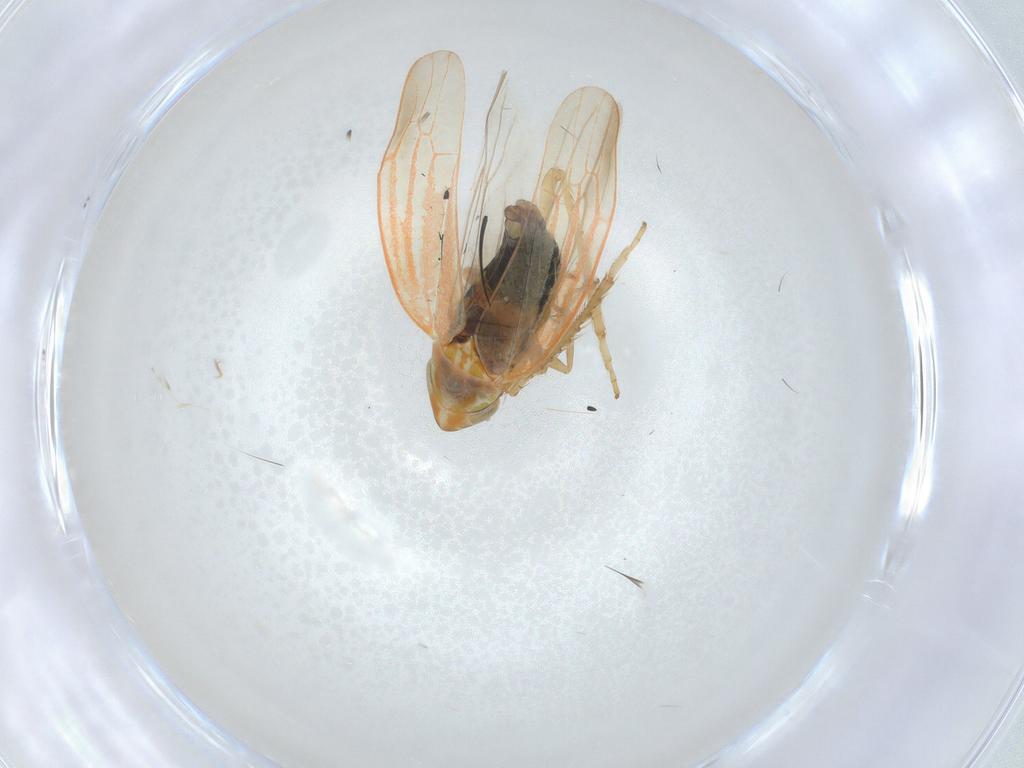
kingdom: Animalia
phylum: Arthropoda
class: Insecta
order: Hemiptera
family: Cicadellidae
